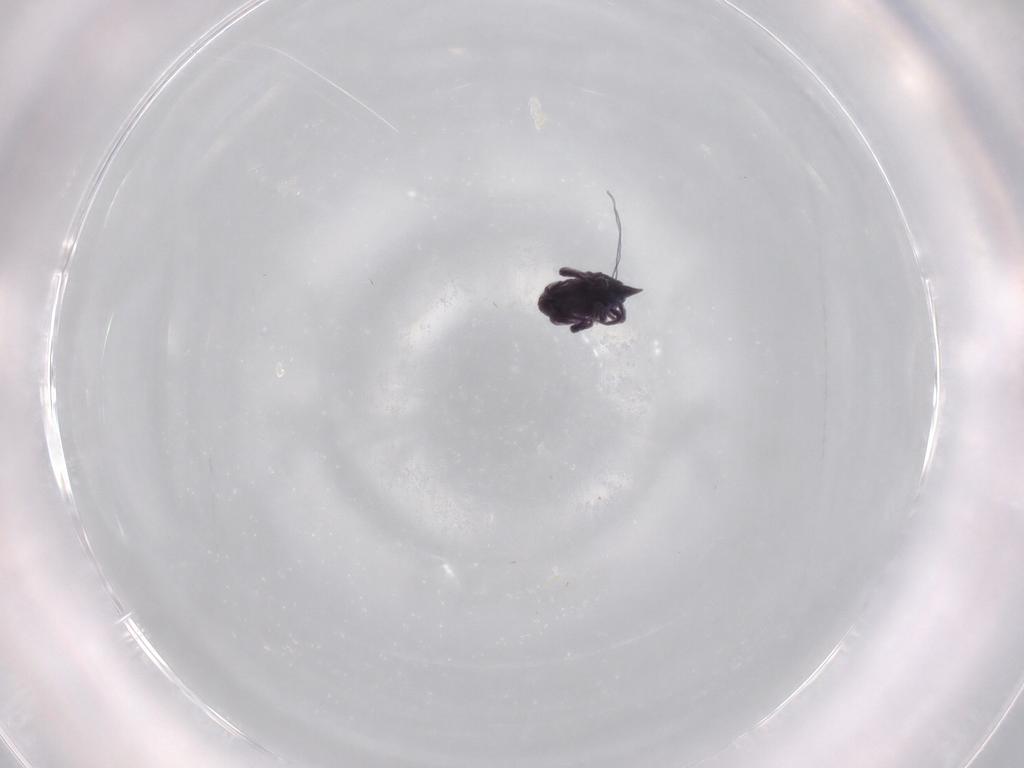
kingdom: Animalia
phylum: Arthropoda
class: Arachnida
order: Trombidiformes
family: Bdellidae
